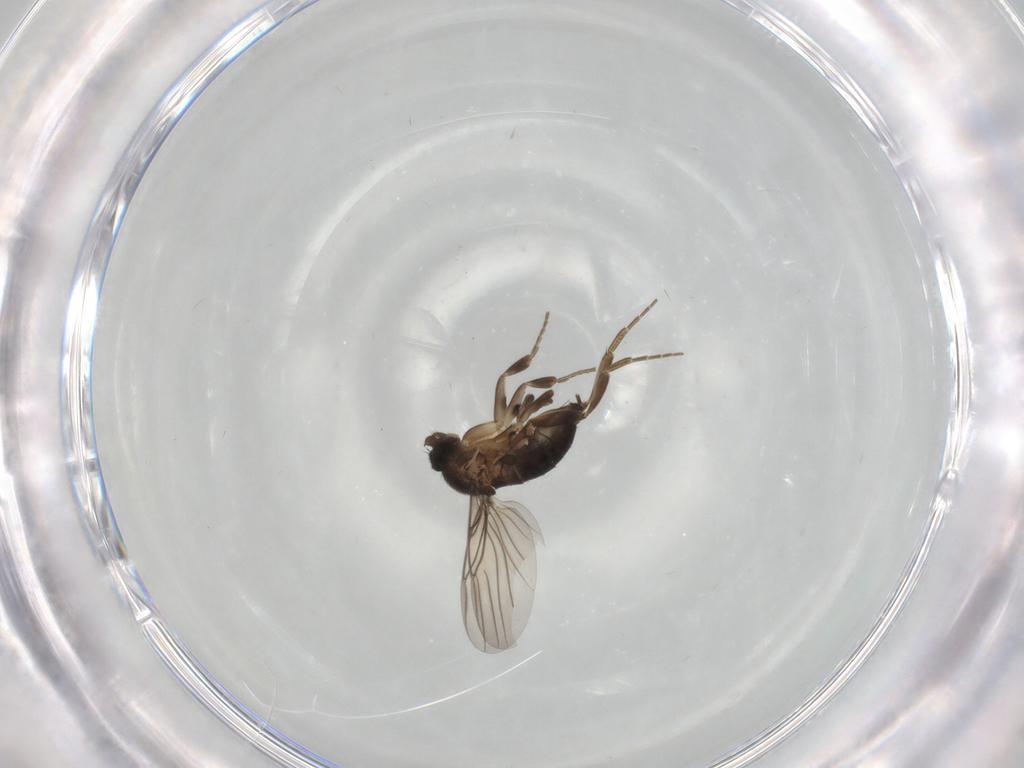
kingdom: Animalia
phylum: Arthropoda
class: Insecta
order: Diptera
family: Phoridae
